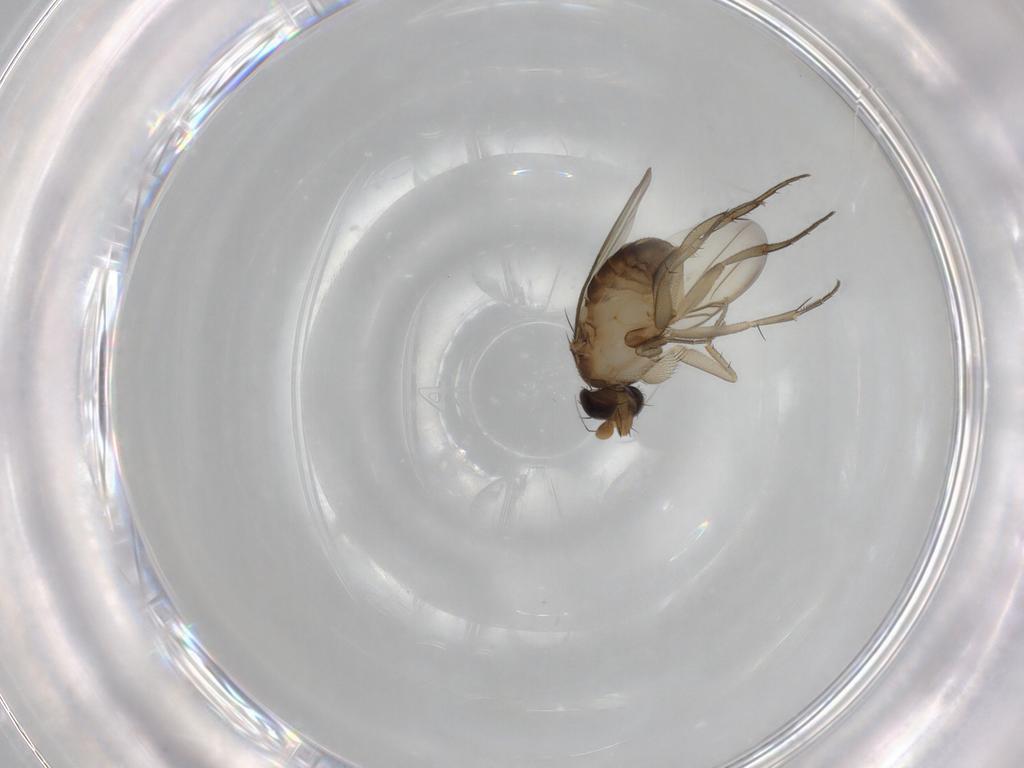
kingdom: Animalia
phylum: Arthropoda
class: Insecta
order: Diptera
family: Phoridae
